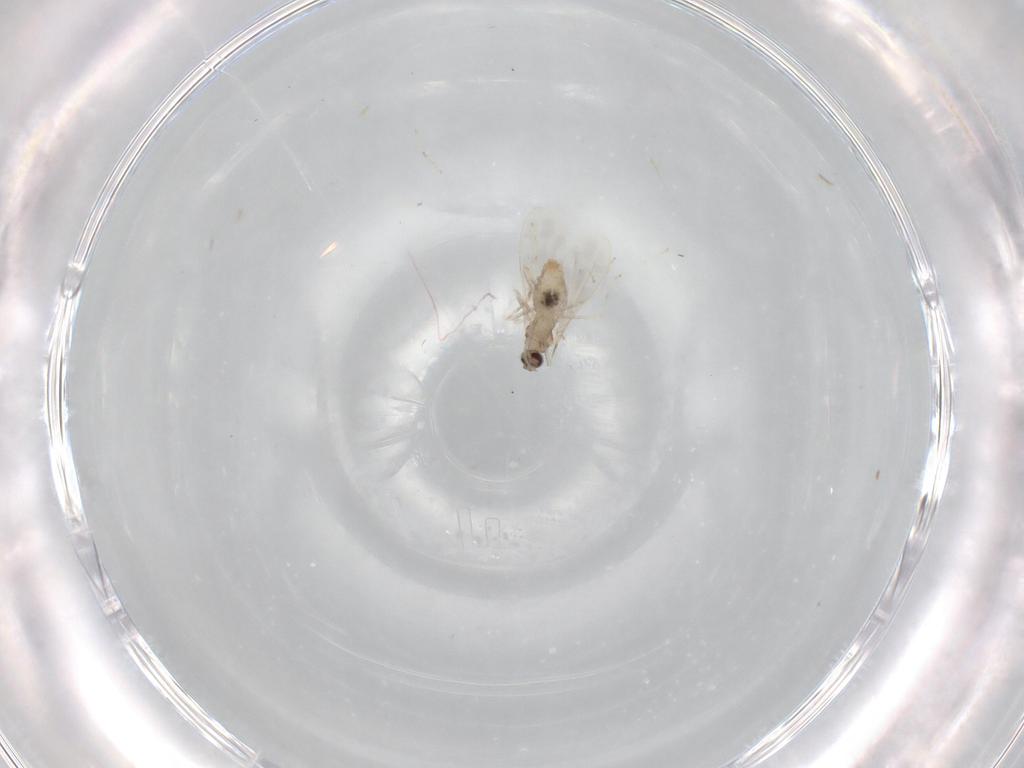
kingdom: Animalia
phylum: Arthropoda
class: Insecta
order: Diptera
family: Cecidomyiidae
